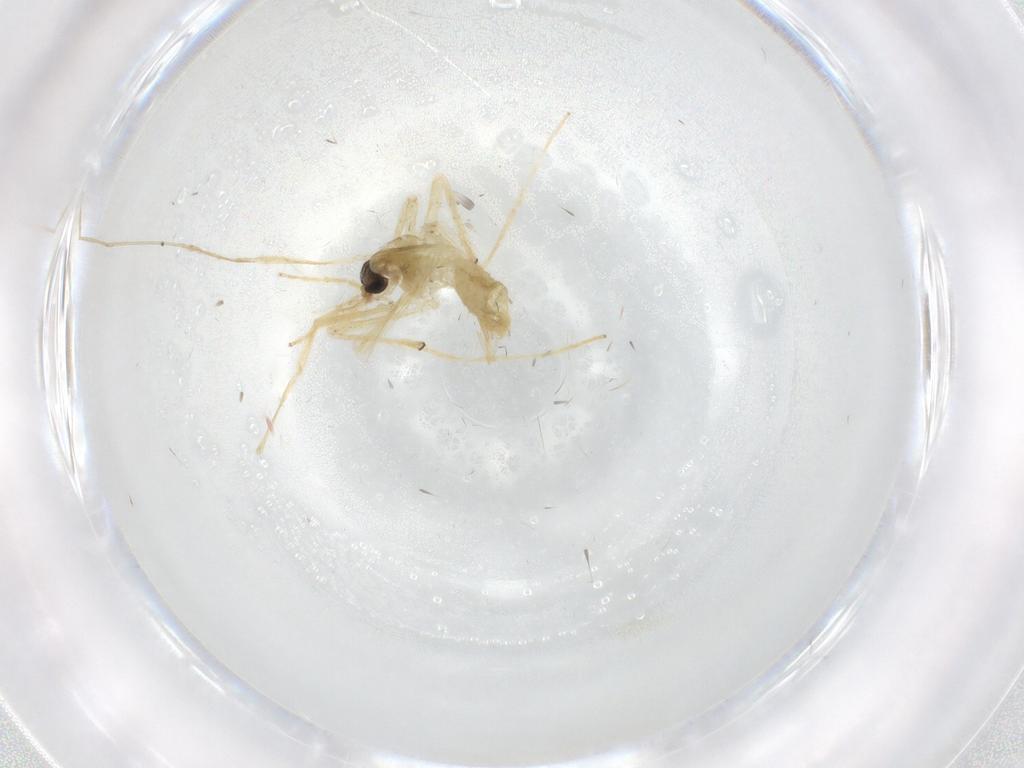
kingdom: Animalia
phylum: Arthropoda
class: Insecta
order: Diptera
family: Chironomidae
